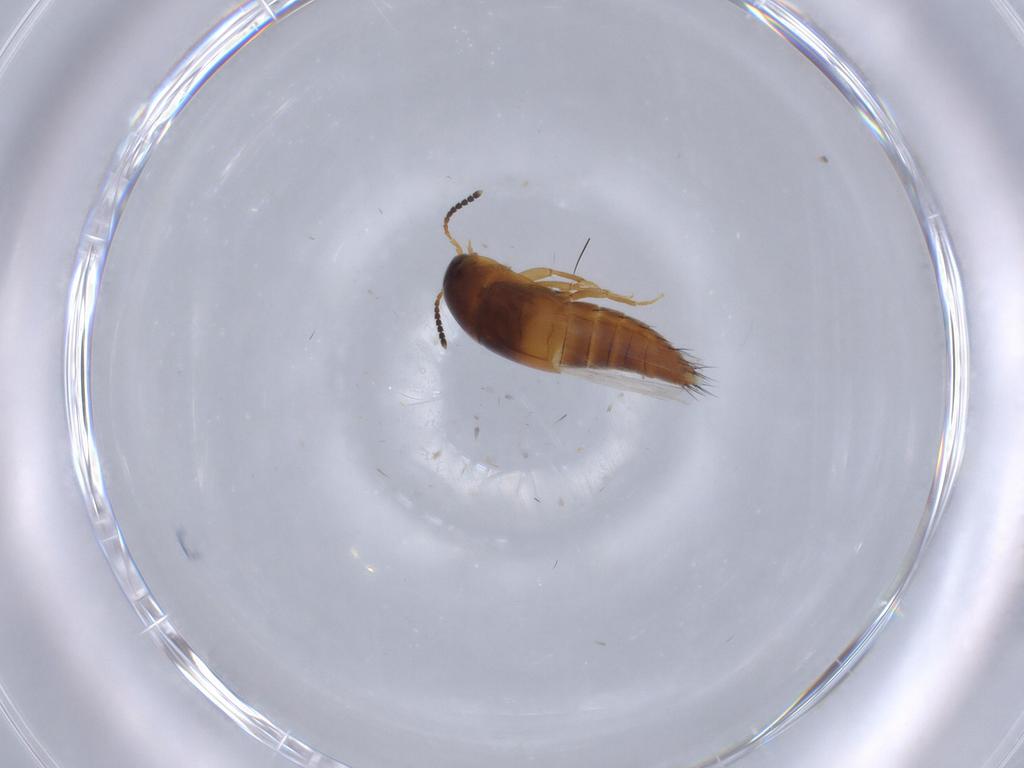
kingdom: Animalia
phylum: Arthropoda
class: Insecta
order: Coleoptera
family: Staphylinidae
